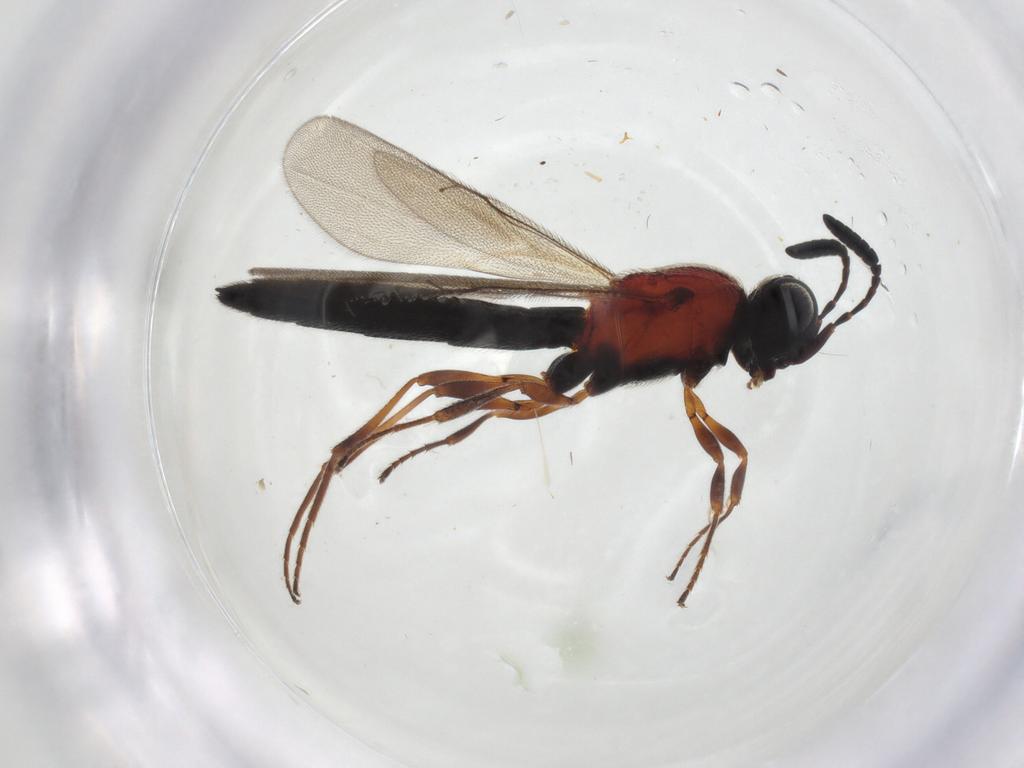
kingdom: Animalia
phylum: Arthropoda
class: Insecta
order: Hymenoptera
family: Scelionidae
